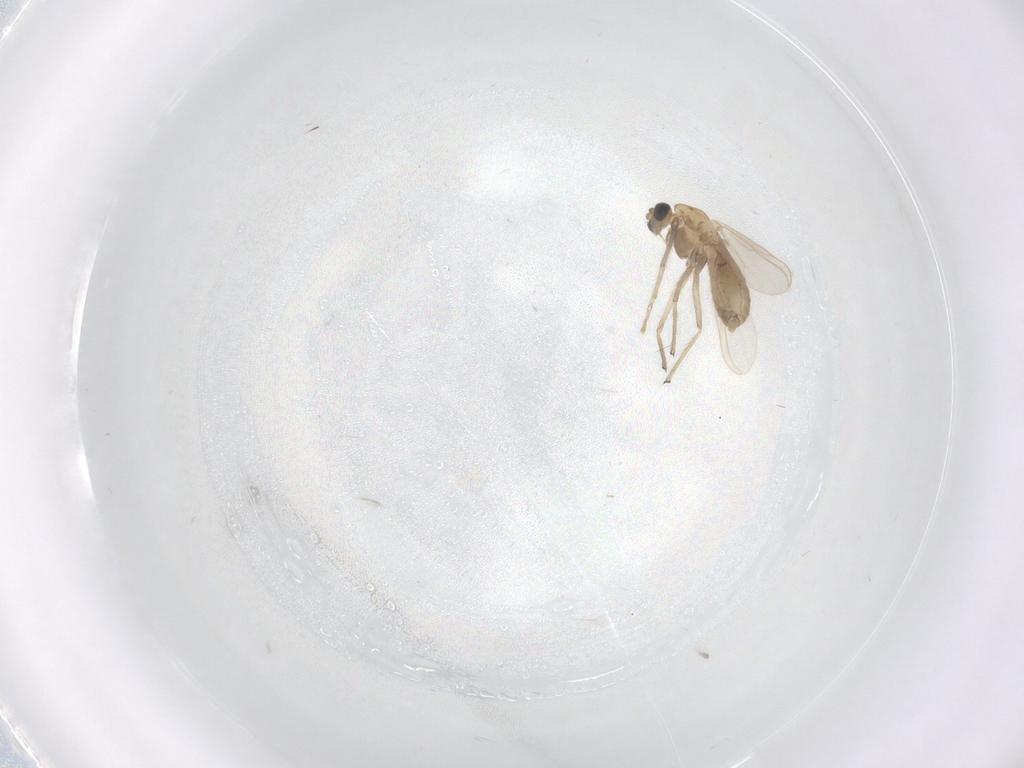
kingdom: Animalia
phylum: Arthropoda
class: Insecta
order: Diptera
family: Chironomidae
